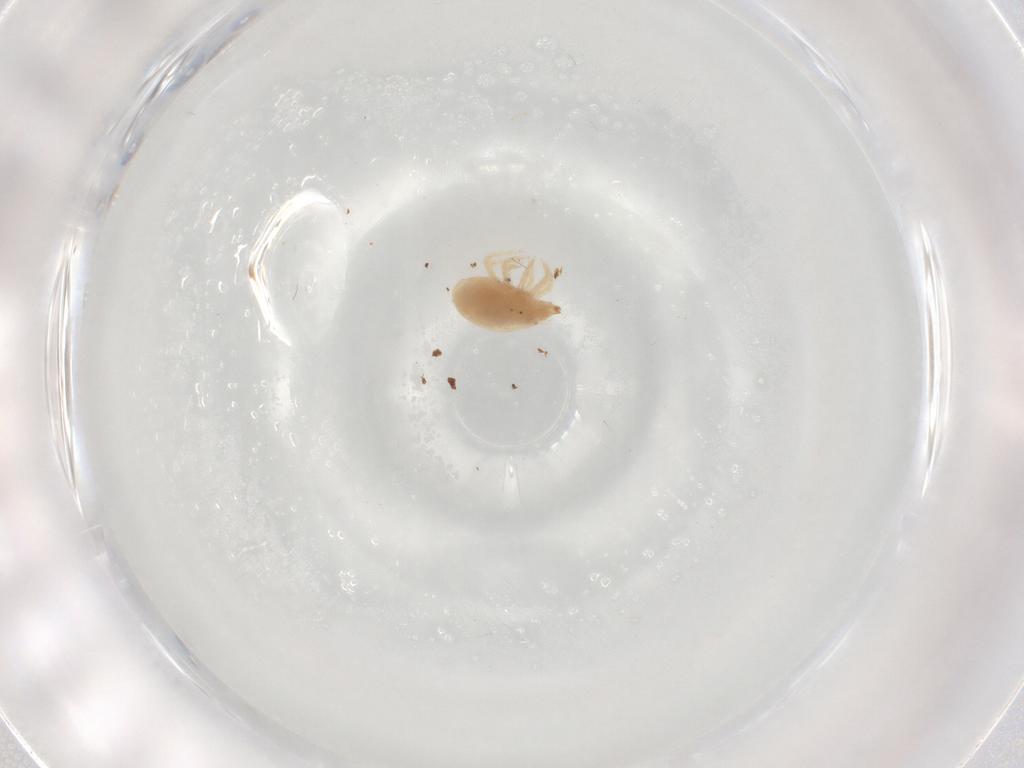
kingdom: Animalia
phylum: Arthropoda
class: Arachnida
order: Trombidiformes
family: Bdellidae
